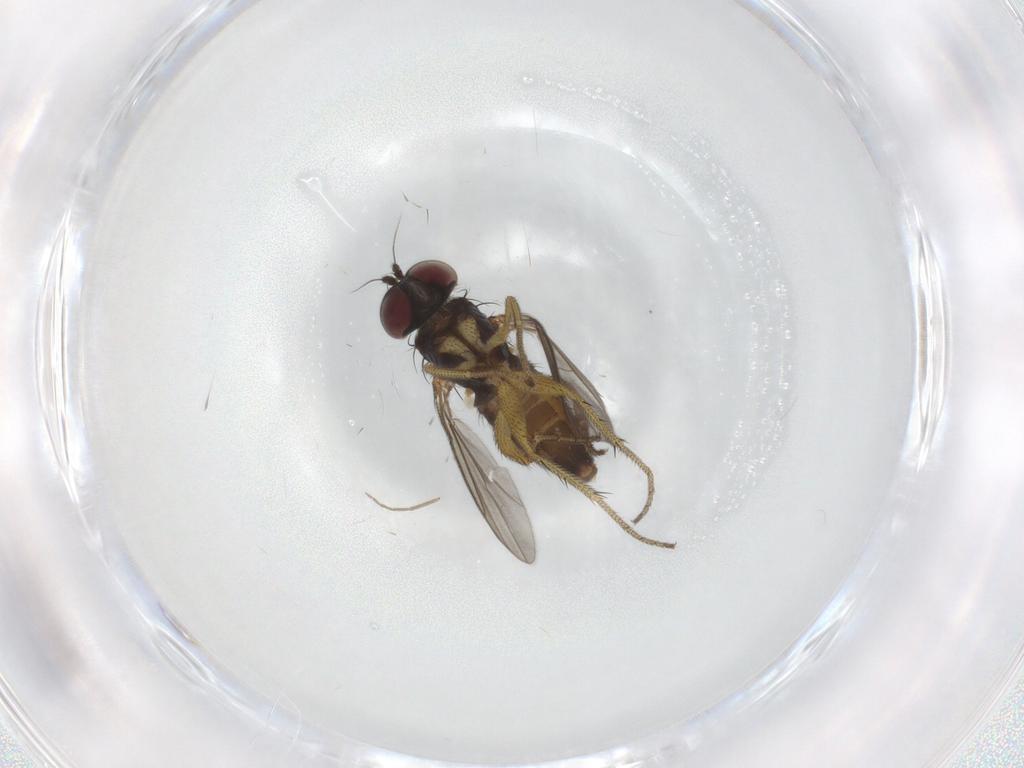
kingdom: Animalia
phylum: Arthropoda
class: Insecta
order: Diptera
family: Dolichopodidae
